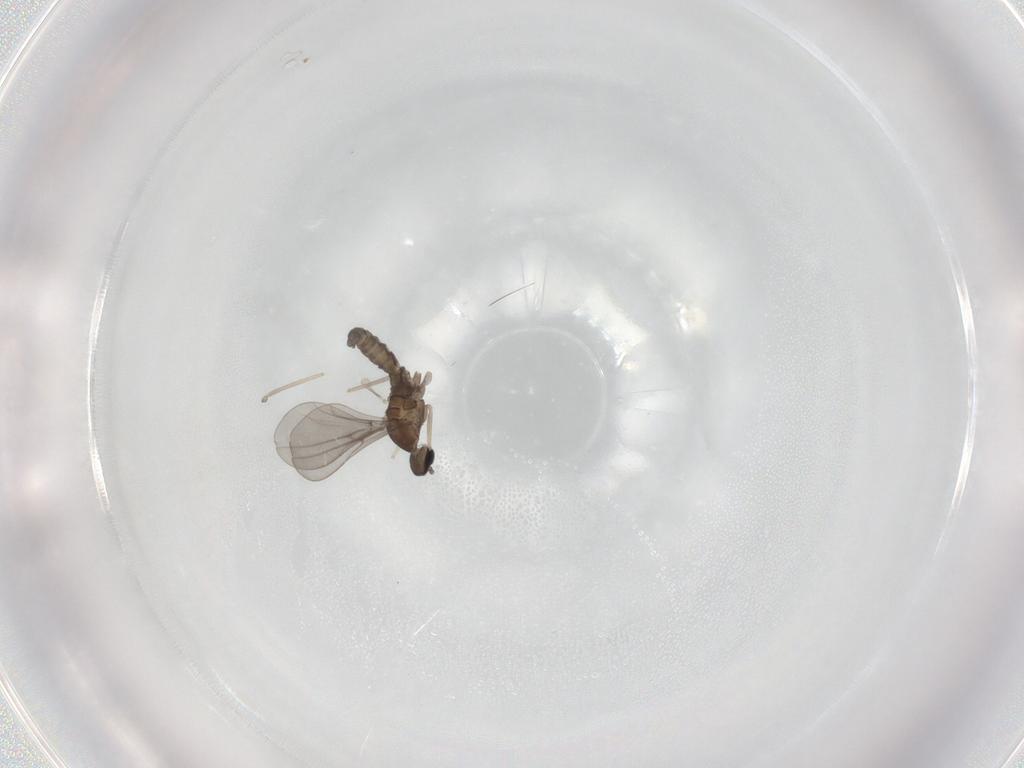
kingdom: Animalia
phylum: Arthropoda
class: Insecta
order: Diptera
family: Cecidomyiidae
